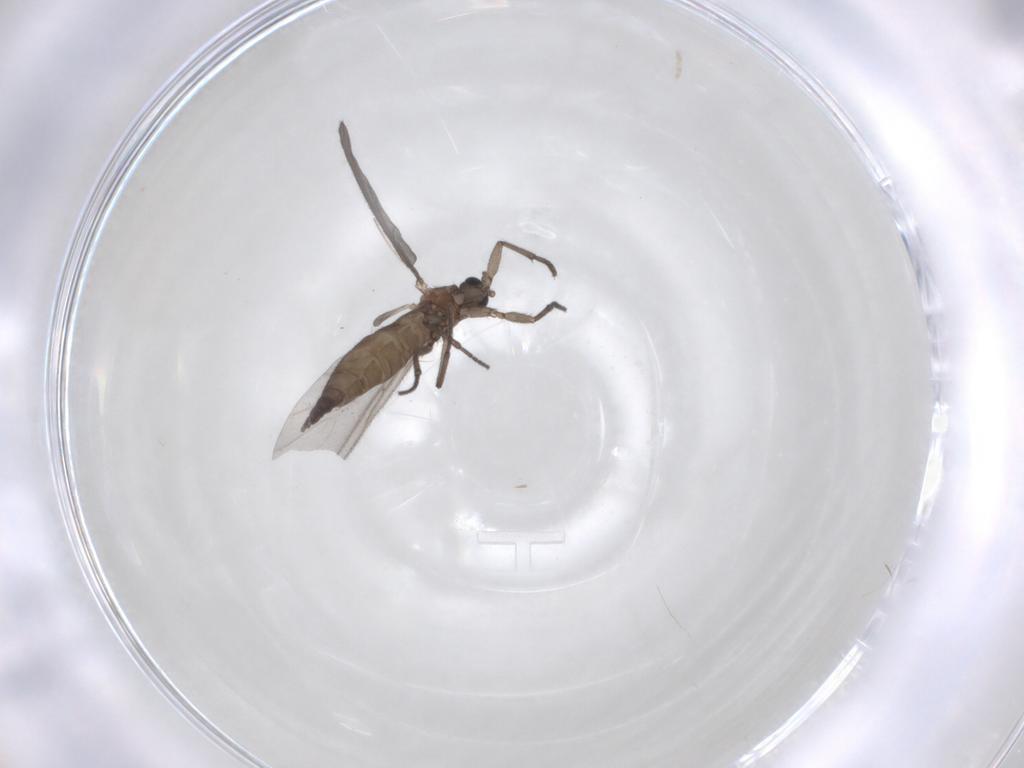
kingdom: Animalia
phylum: Arthropoda
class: Insecta
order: Diptera
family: Sciaridae
